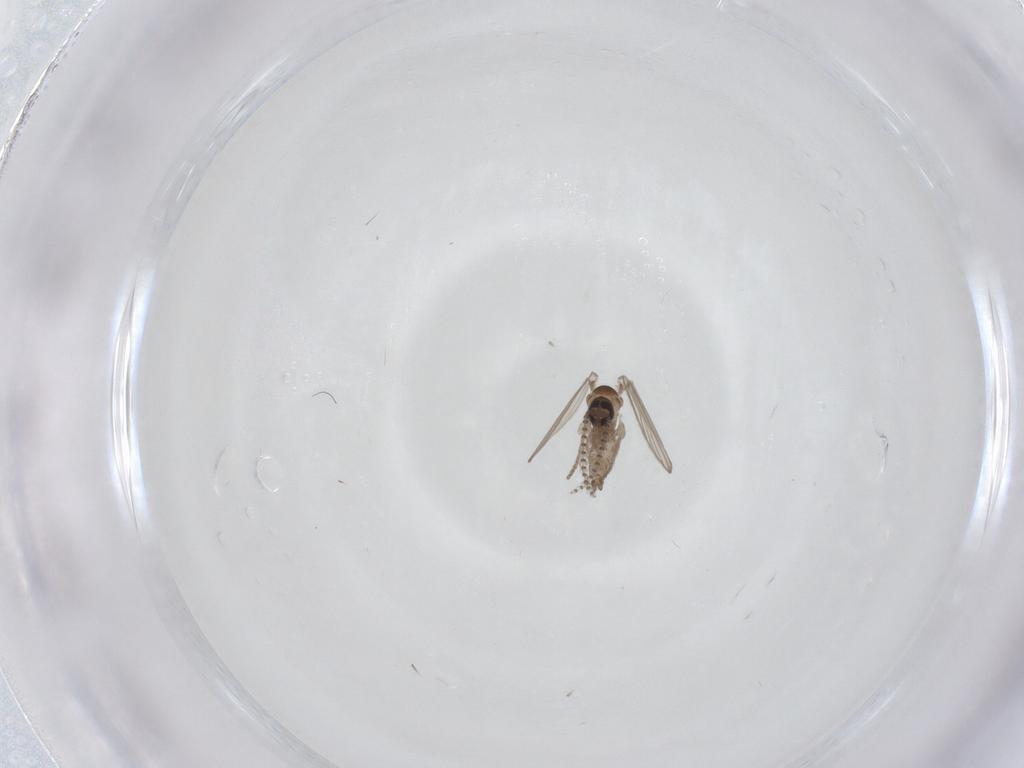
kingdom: Animalia
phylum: Arthropoda
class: Insecta
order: Diptera
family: Psychodidae
